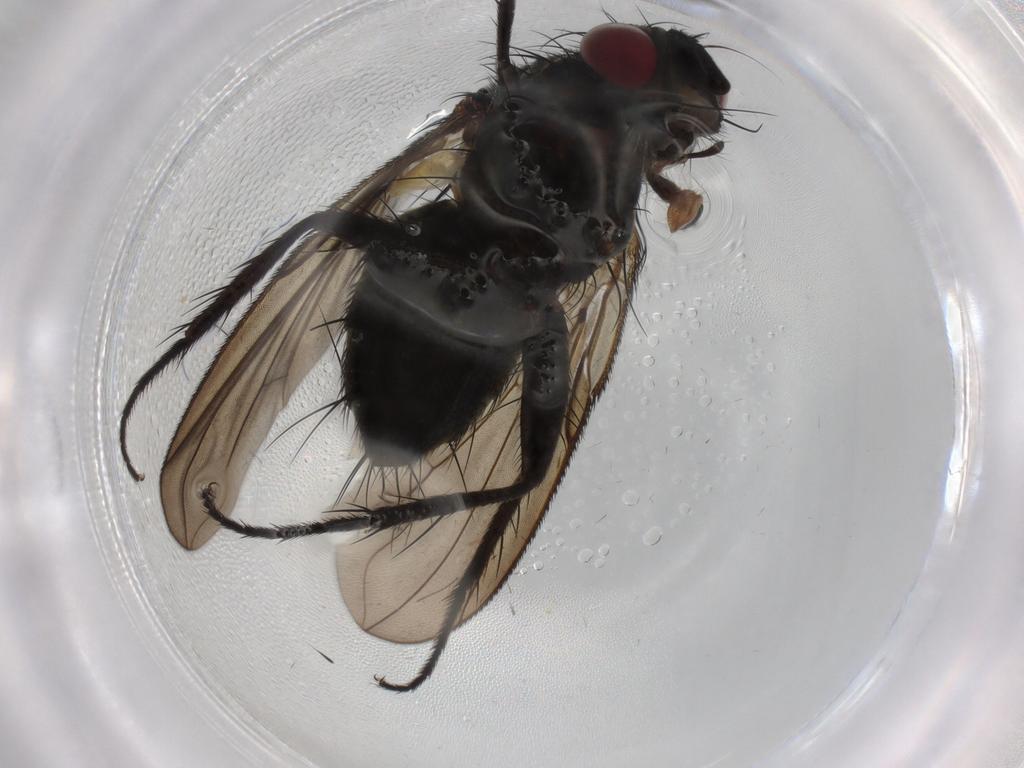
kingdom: Animalia
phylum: Arthropoda
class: Insecta
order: Diptera
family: Sciaridae
